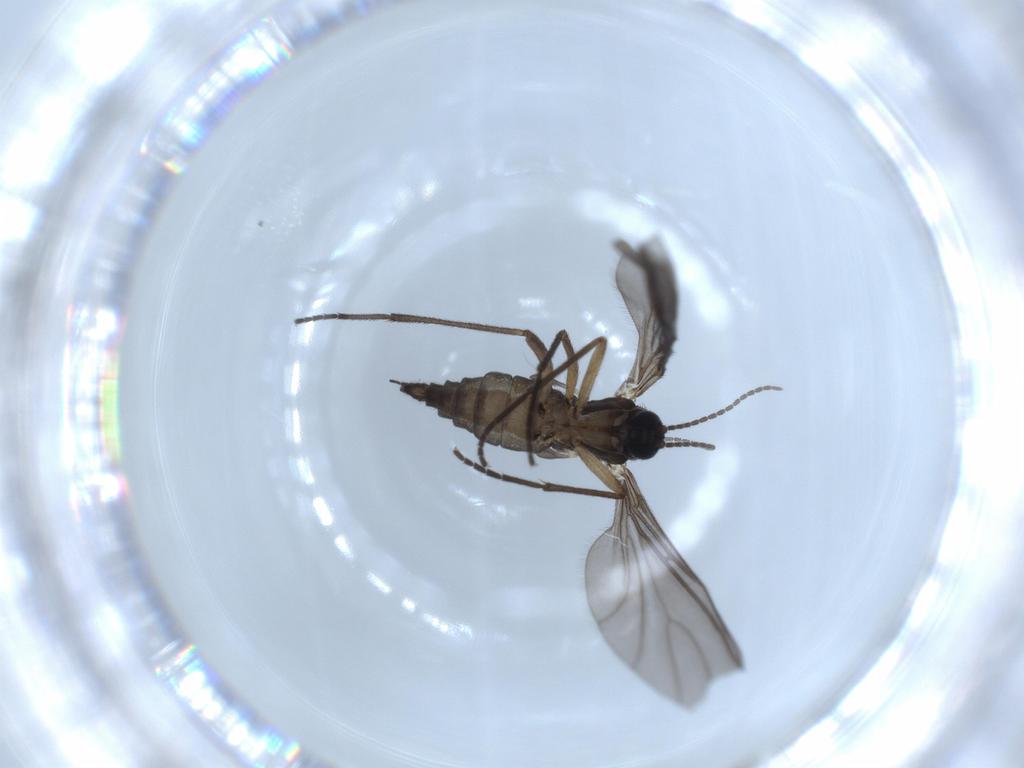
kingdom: Animalia
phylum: Arthropoda
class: Insecta
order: Diptera
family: Sciaridae
